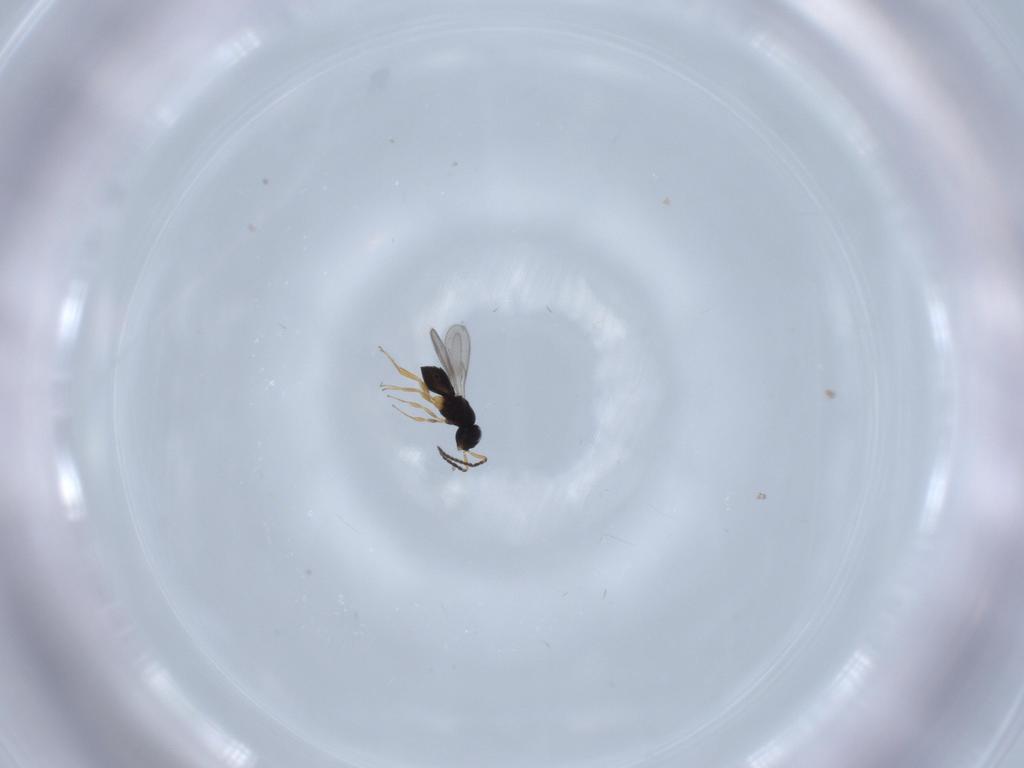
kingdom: Animalia
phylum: Arthropoda
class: Insecta
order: Hymenoptera
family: Scelionidae
